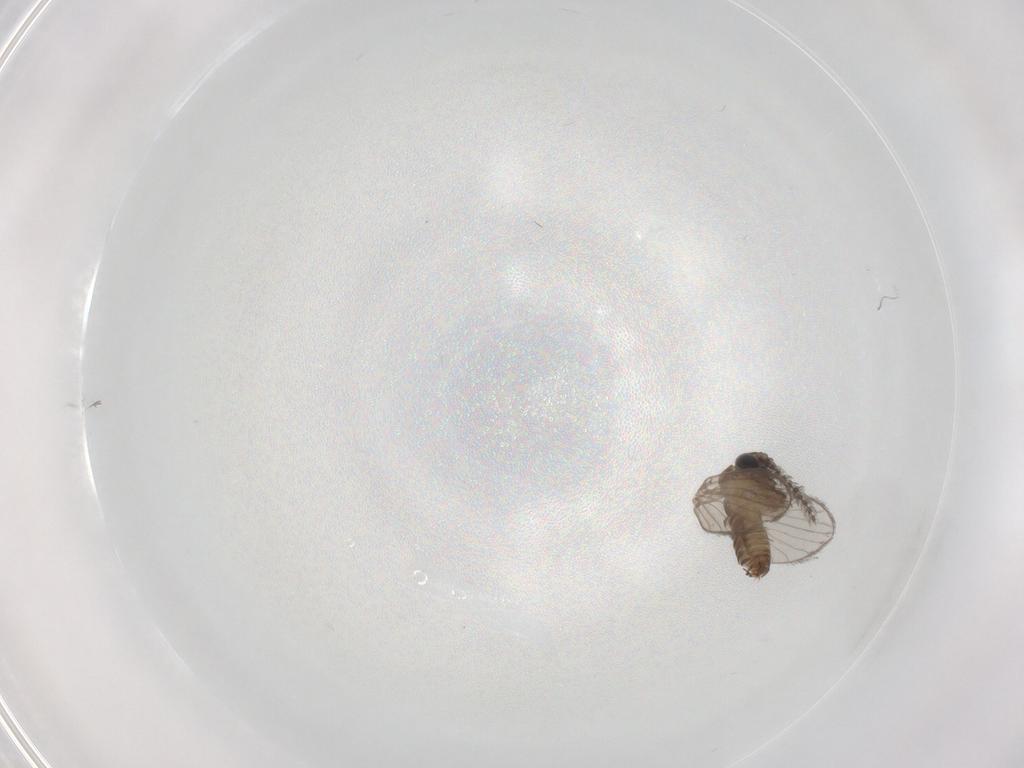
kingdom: Animalia
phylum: Arthropoda
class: Insecta
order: Diptera
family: Psychodidae
